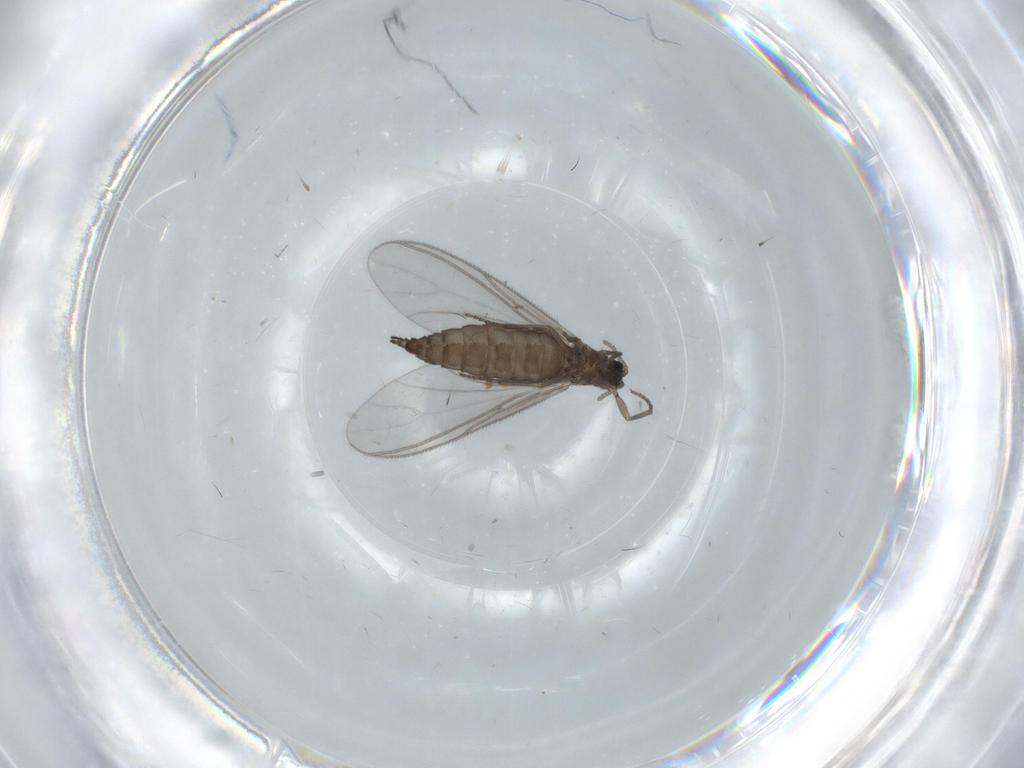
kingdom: Animalia
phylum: Arthropoda
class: Insecta
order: Diptera
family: Sciaridae
